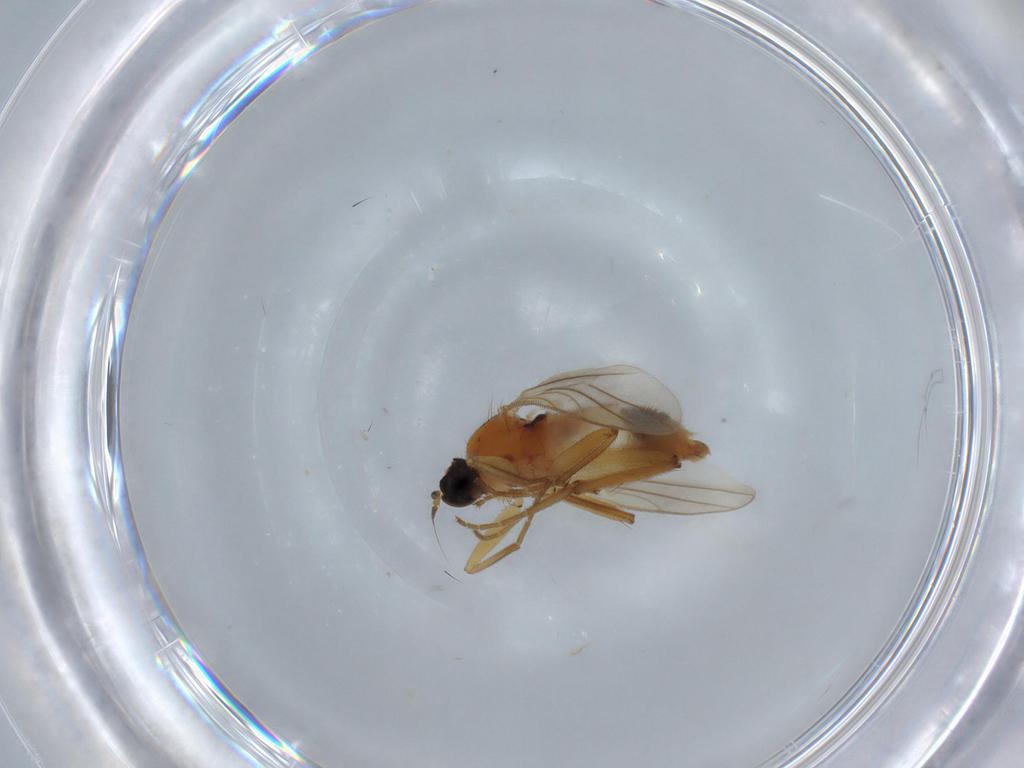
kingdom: Animalia
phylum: Arthropoda
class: Insecta
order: Diptera
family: Hybotidae
